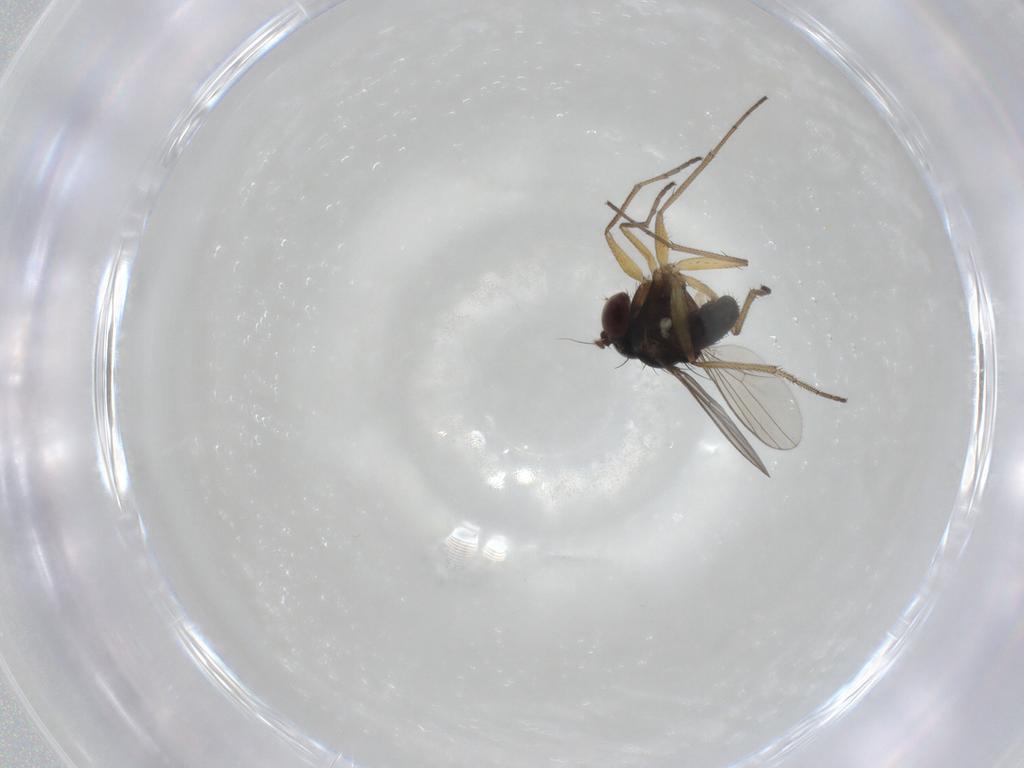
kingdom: Animalia
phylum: Arthropoda
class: Insecta
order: Diptera
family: Dolichopodidae
